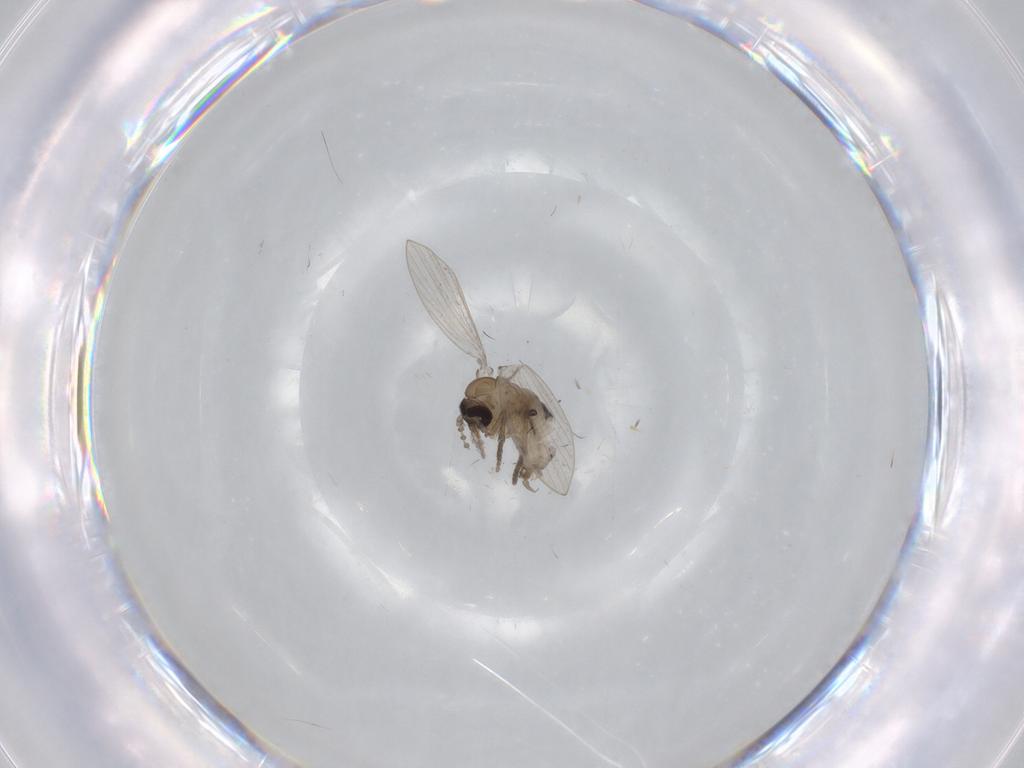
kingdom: Animalia
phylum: Arthropoda
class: Insecta
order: Diptera
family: Psychodidae
